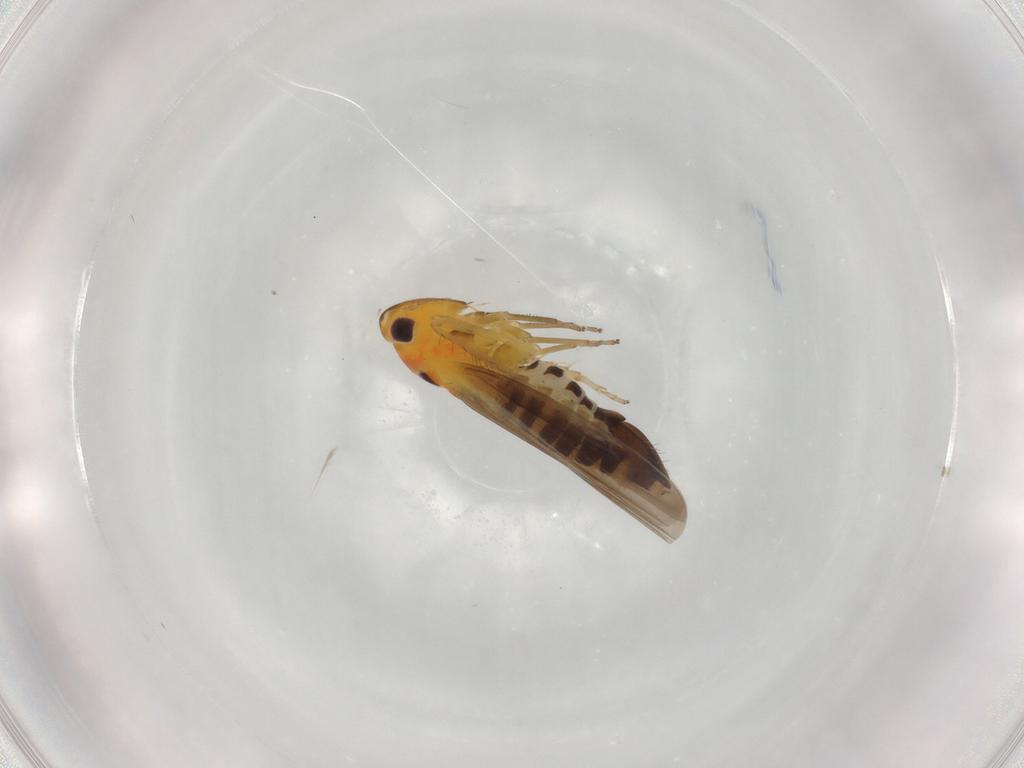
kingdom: Animalia
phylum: Arthropoda
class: Insecta
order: Hemiptera
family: Cicadellidae
